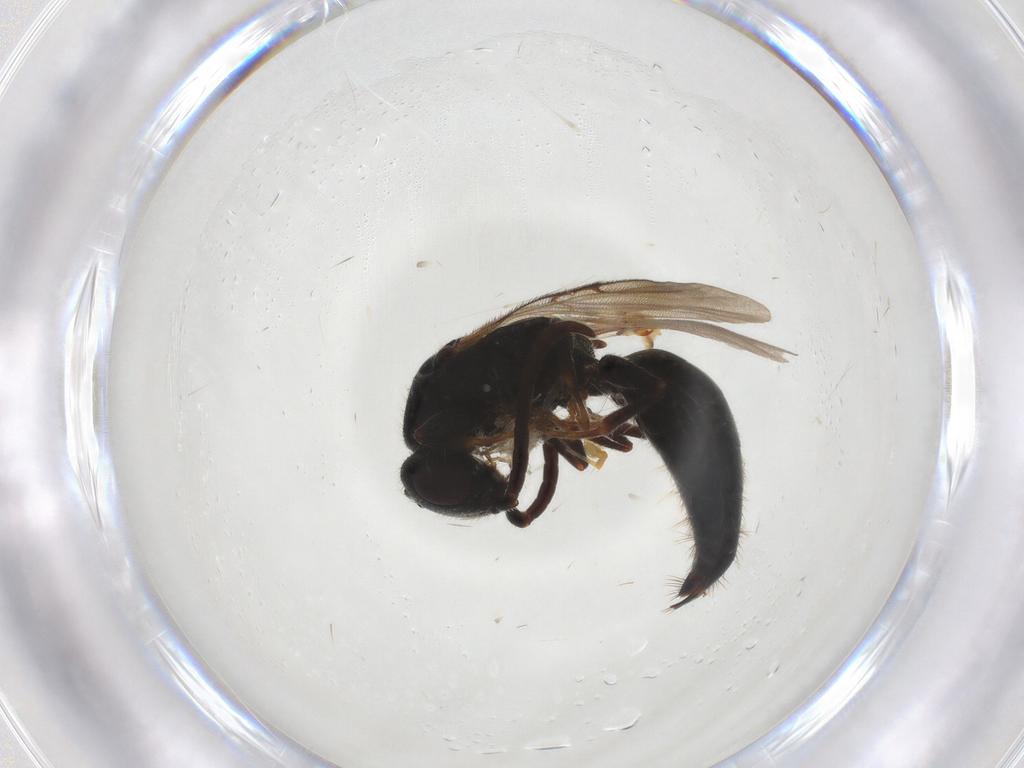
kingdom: Animalia
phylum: Arthropoda
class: Insecta
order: Hymenoptera
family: Bethylidae
